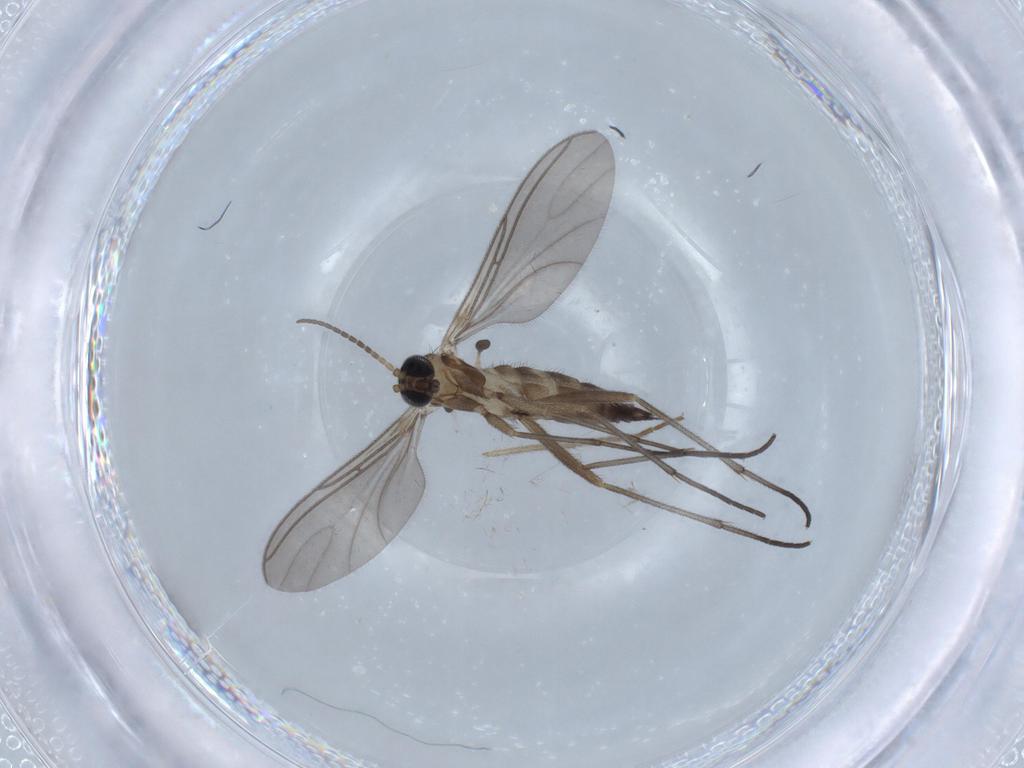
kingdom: Animalia
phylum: Arthropoda
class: Insecta
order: Diptera
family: Sciaridae
